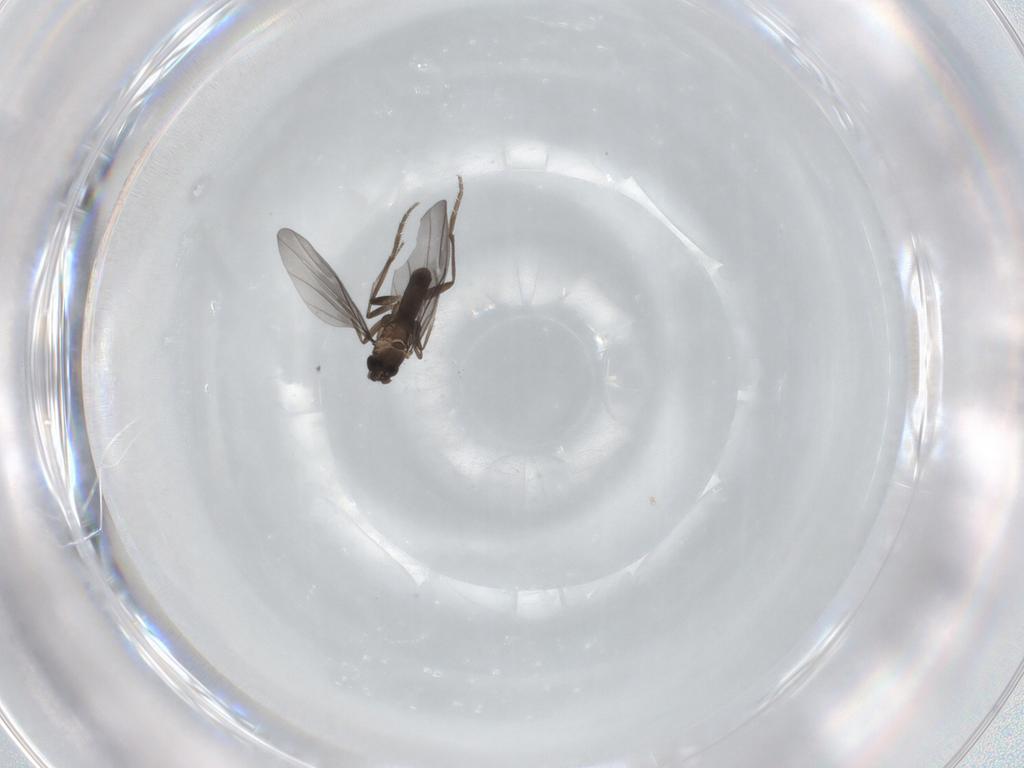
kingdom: Animalia
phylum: Arthropoda
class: Insecta
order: Diptera
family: Phoridae
